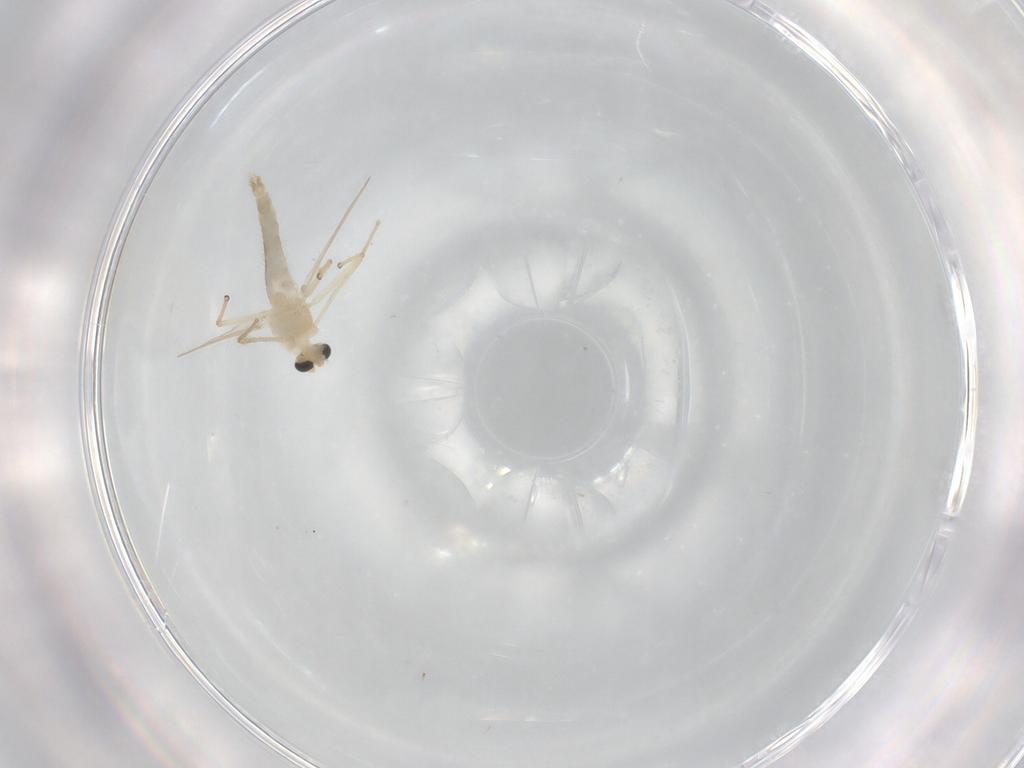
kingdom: Animalia
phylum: Arthropoda
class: Insecta
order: Diptera
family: Chironomidae
